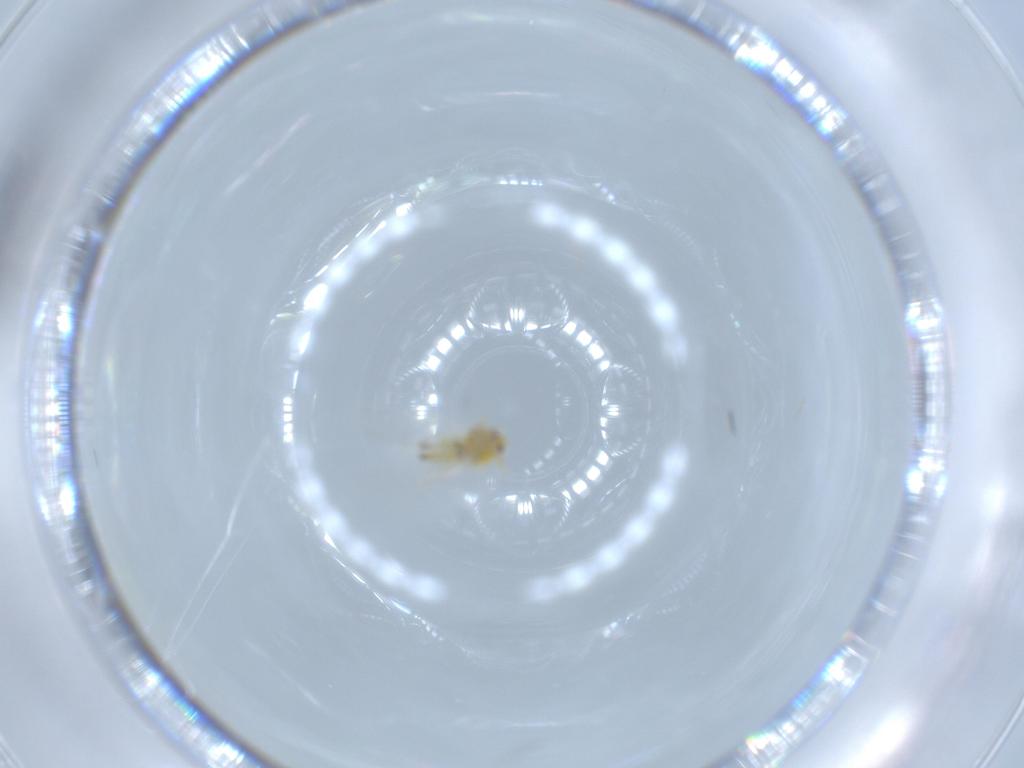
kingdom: Animalia
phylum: Arthropoda
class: Insecta
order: Hemiptera
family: Aleyrodidae
